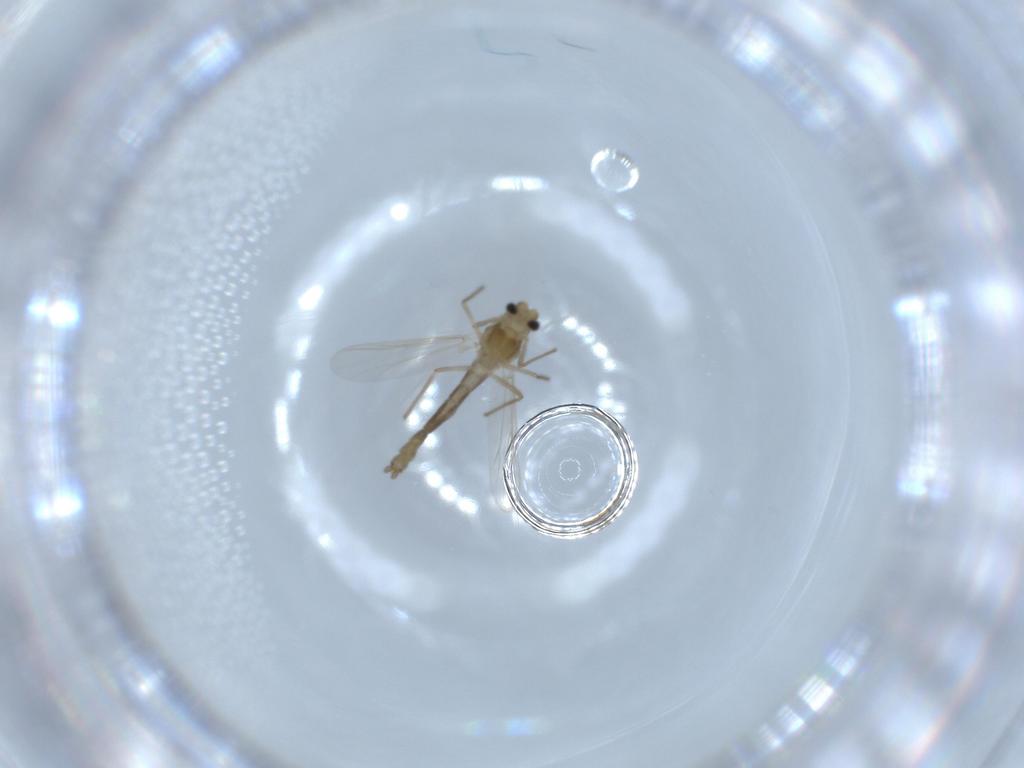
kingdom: Animalia
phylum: Arthropoda
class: Insecta
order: Diptera
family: Chironomidae
